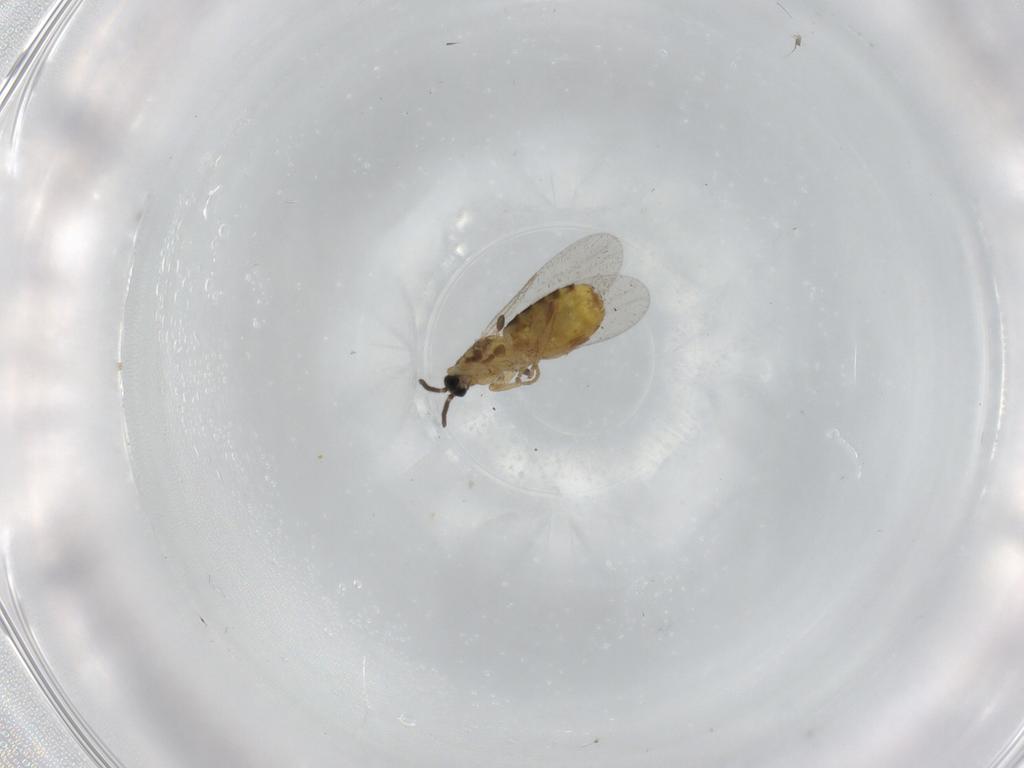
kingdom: Animalia
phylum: Arthropoda
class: Insecta
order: Diptera
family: Scatopsidae
